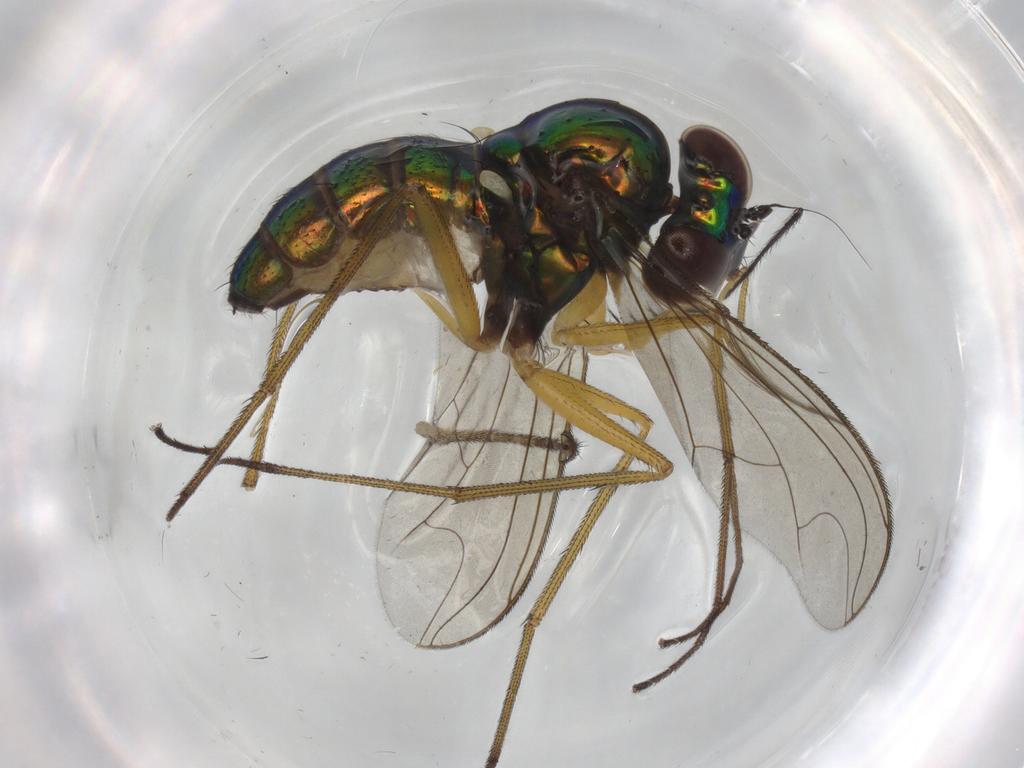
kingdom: Animalia
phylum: Arthropoda
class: Insecta
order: Diptera
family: Dolichopodidae
